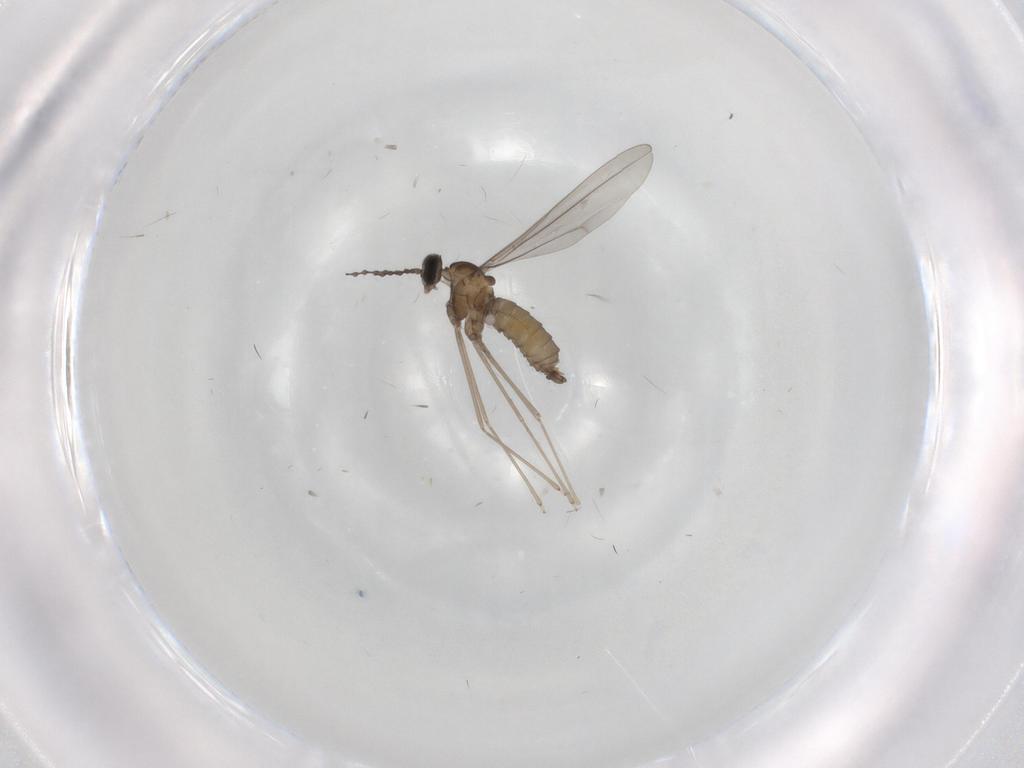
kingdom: Animalia
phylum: Arthropoda
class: Insecta
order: Diptera
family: Cecidomyiidae
